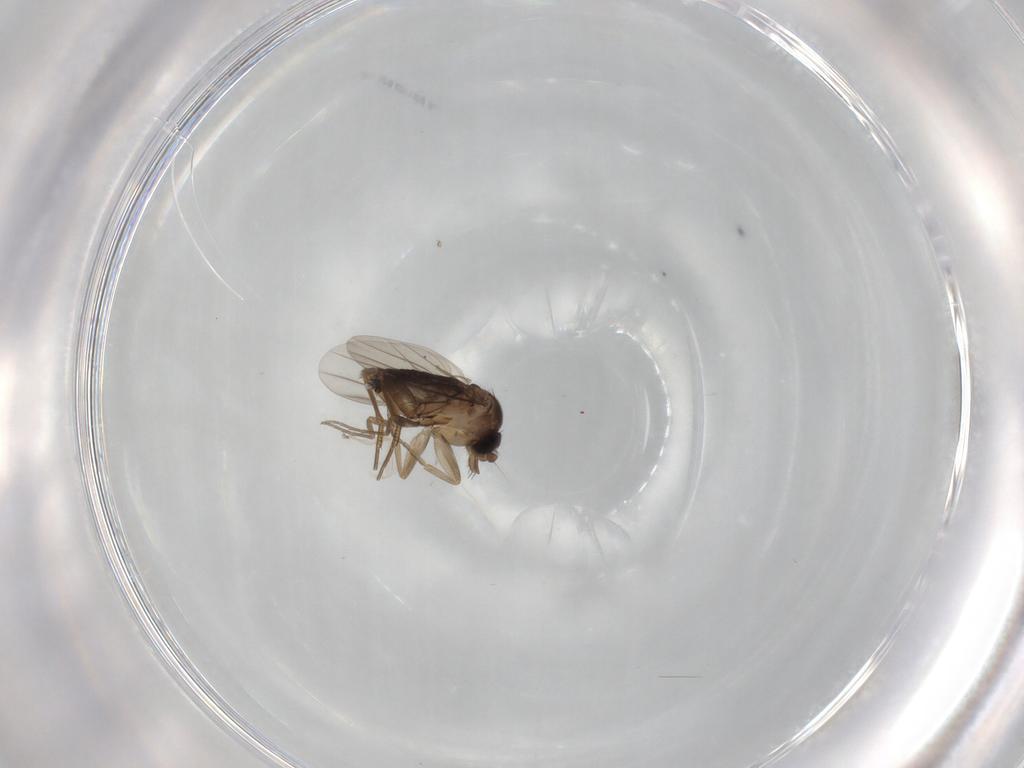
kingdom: Animalia
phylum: Arthropoda
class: Insecta
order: Diptera
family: Phoridae
